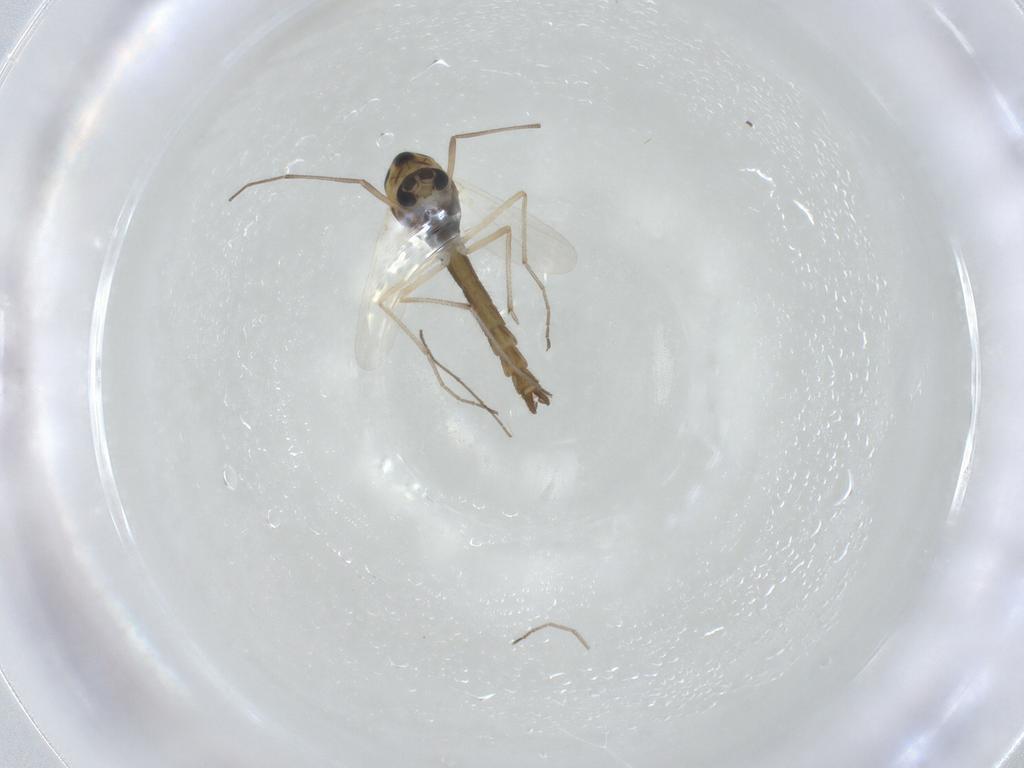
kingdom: Animalia
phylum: Arthropoda
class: Insecta
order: Diptera
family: Chironomidae
